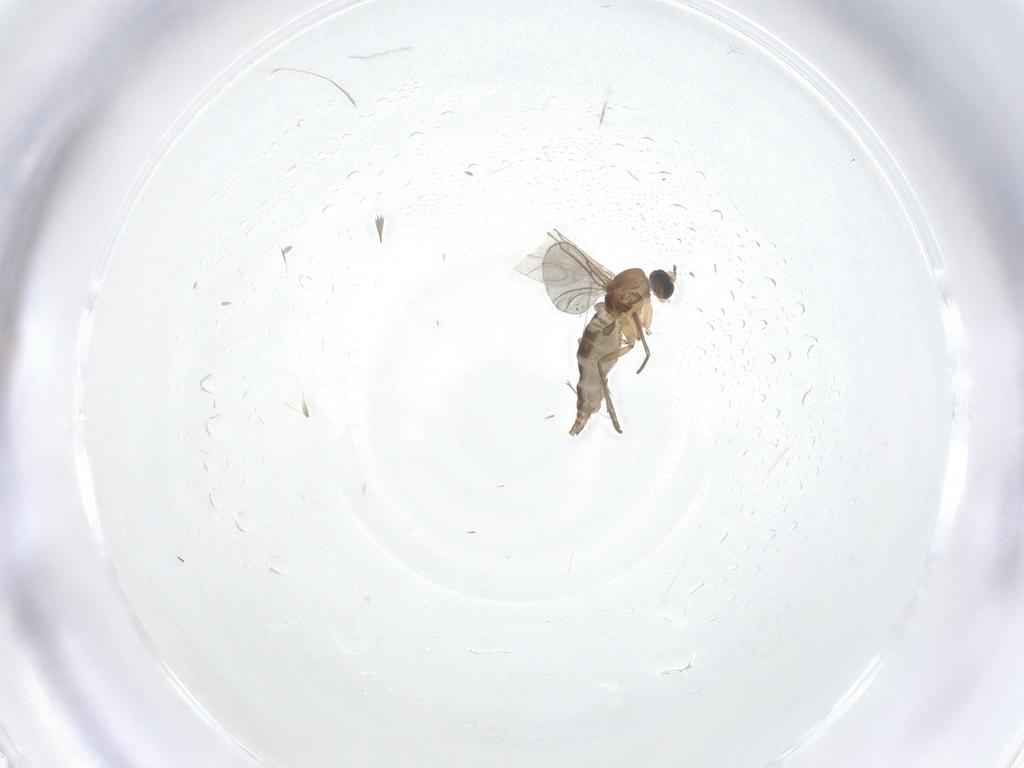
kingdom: Animalia
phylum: Arthropoda
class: Insecta
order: Diptera
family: Sciaridae
